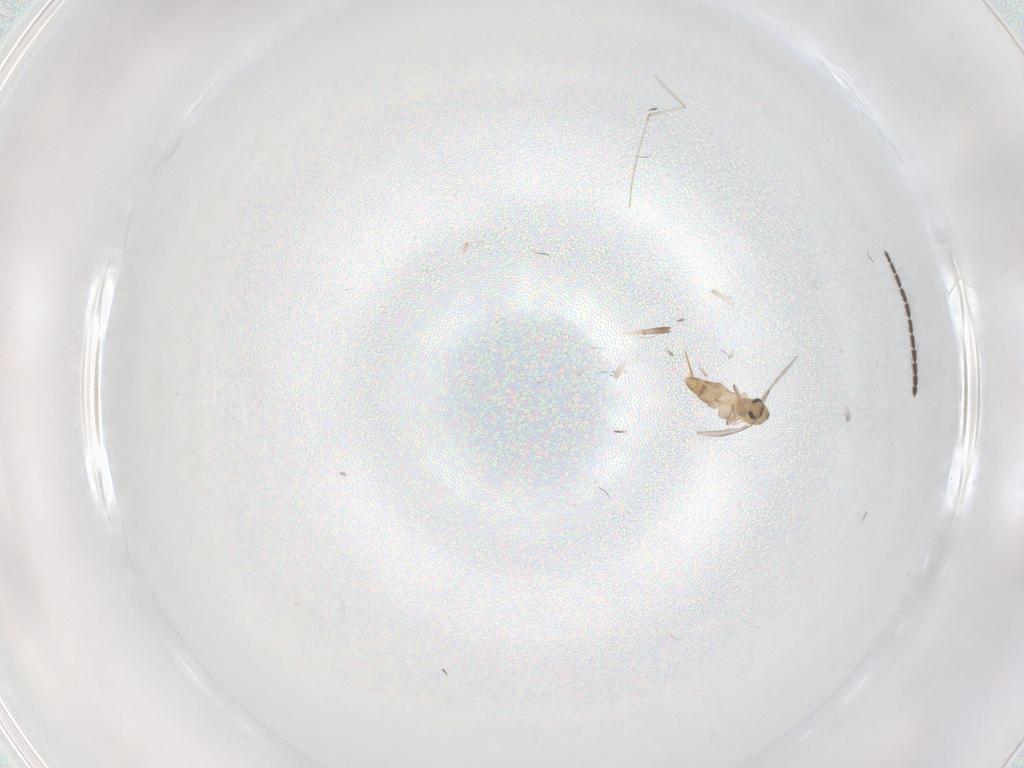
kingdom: Animalia
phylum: Arthropoda
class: Insecta
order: Diptera
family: Chironomidae
